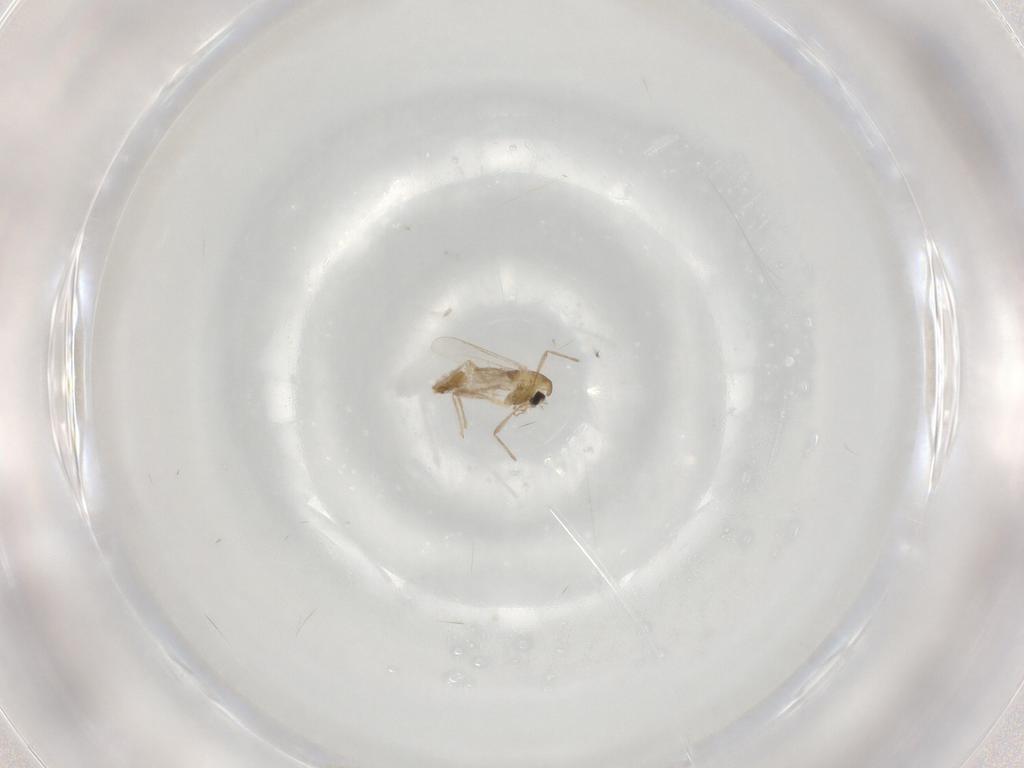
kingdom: Animalia
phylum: Arthropoda
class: Insecta
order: Diptera
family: Chironomidae
